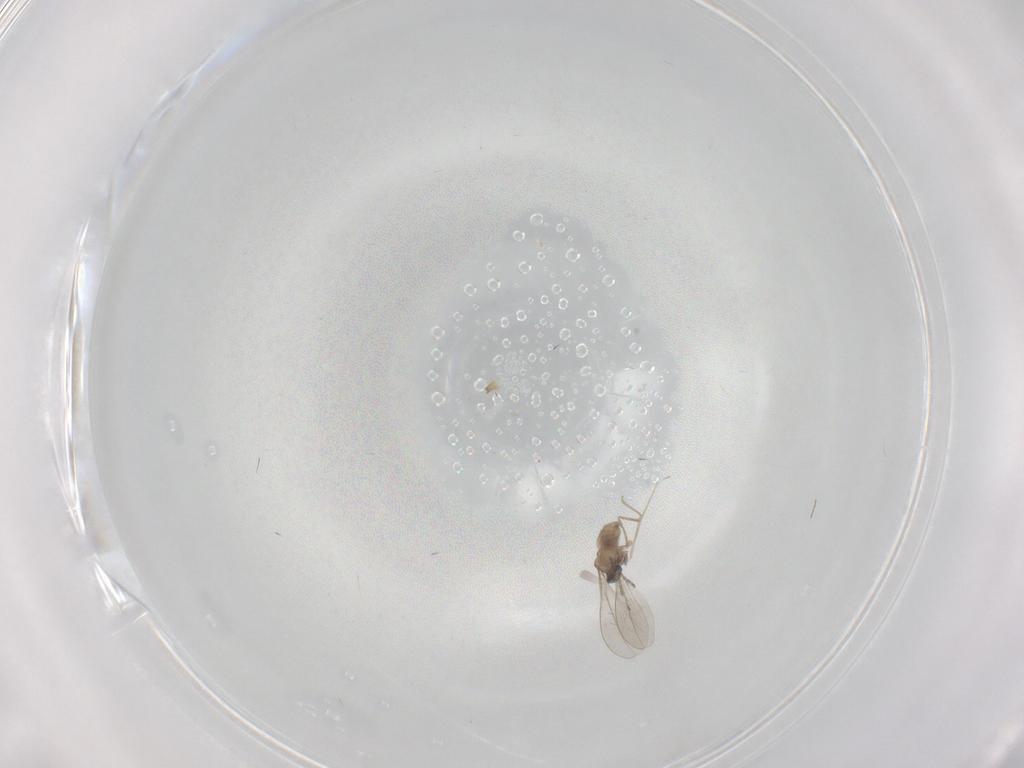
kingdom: Animalia
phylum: Arthropoda
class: Insecta
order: Diptera
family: Cecidomyiidae
